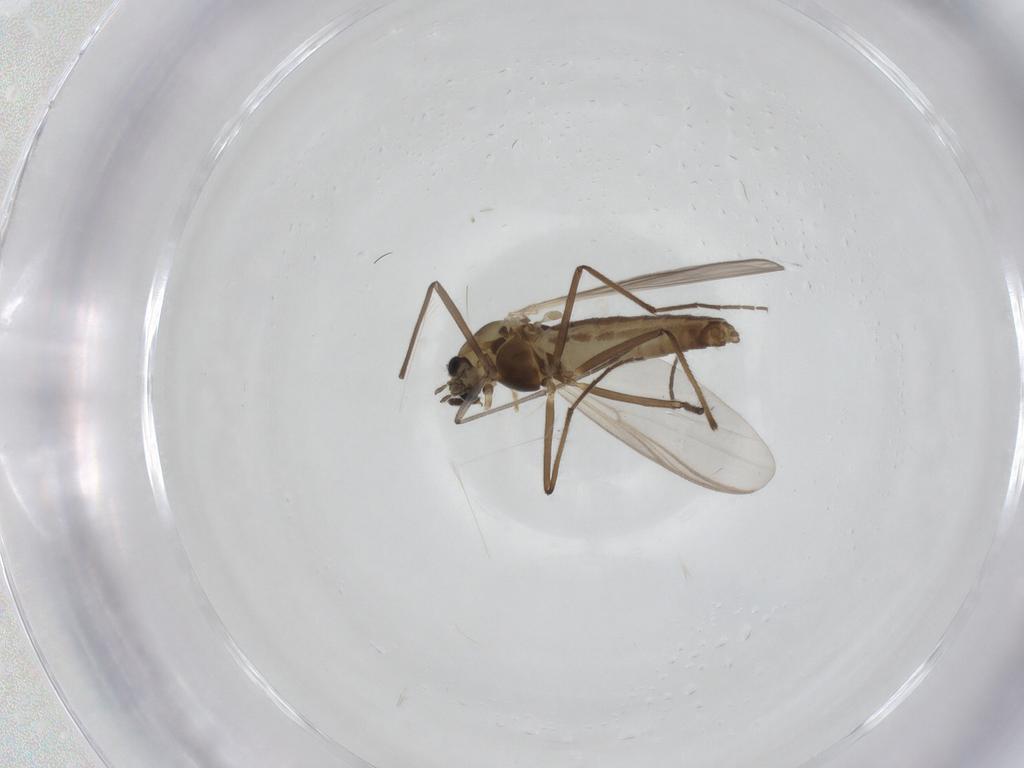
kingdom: Animalia
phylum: Arthropoda
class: Insecta
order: Diptera
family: Chironomidae
